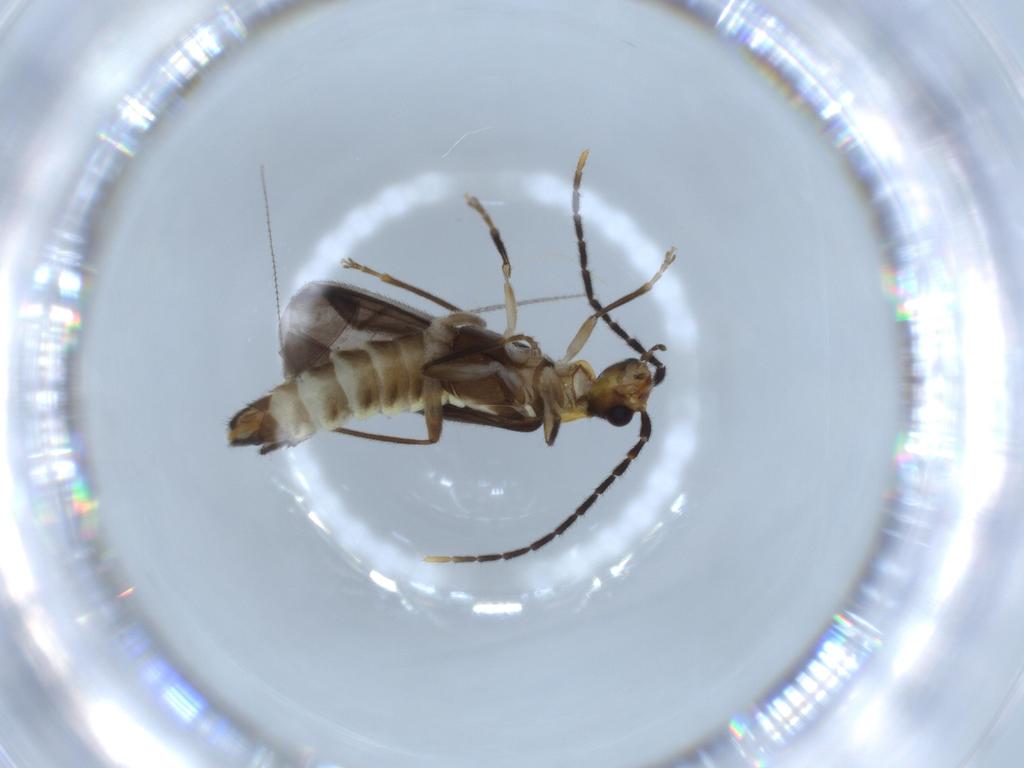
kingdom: Animalia
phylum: Arthropoda
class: Insecta
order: Coleoptera
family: Cantharidae
